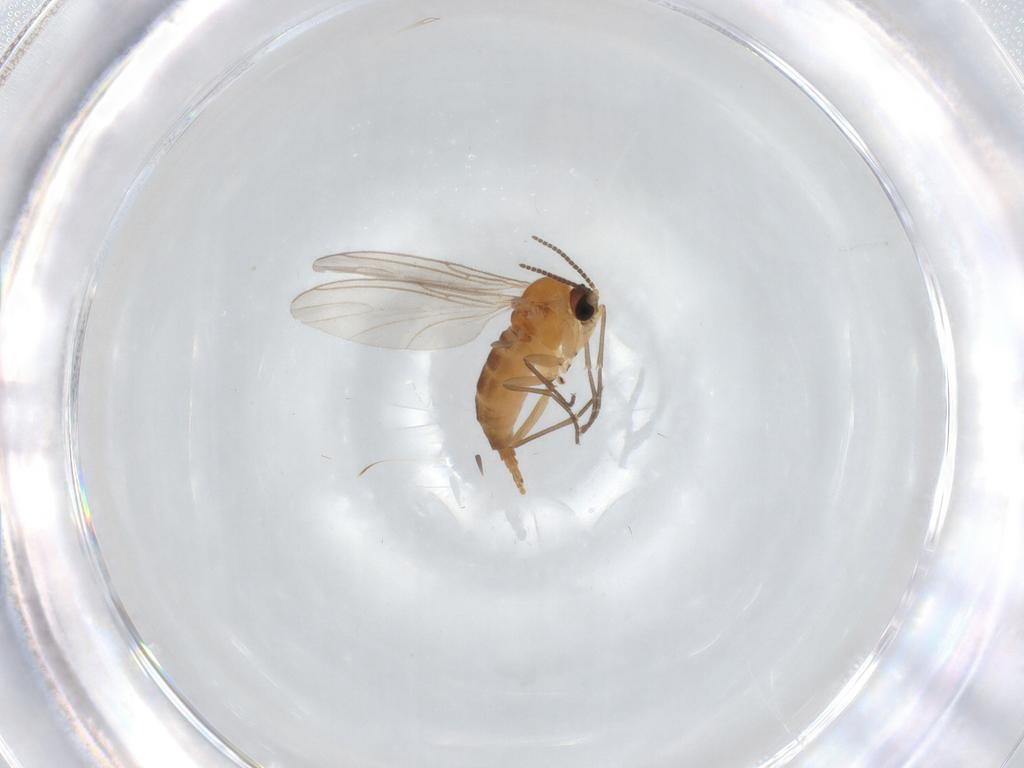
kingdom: Animalia
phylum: Arthropoda
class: Insecta
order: Diptera
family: Sciaridae
